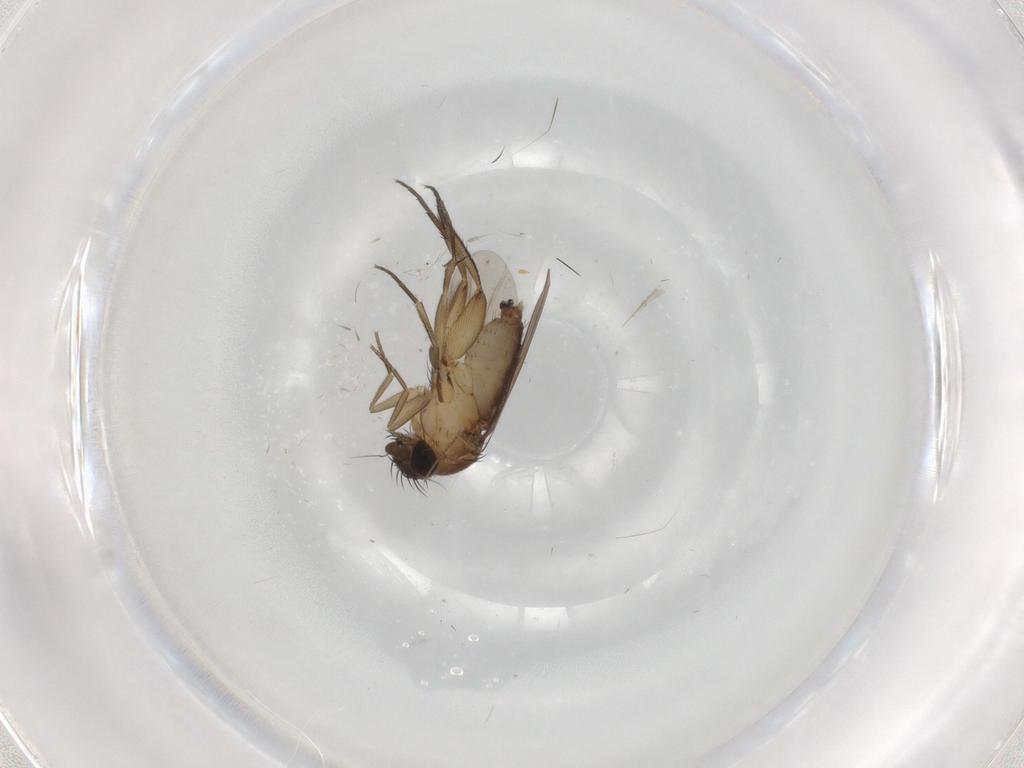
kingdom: Animalia
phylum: Arthropoda
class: Insecta
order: Diptera
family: Phoridae
